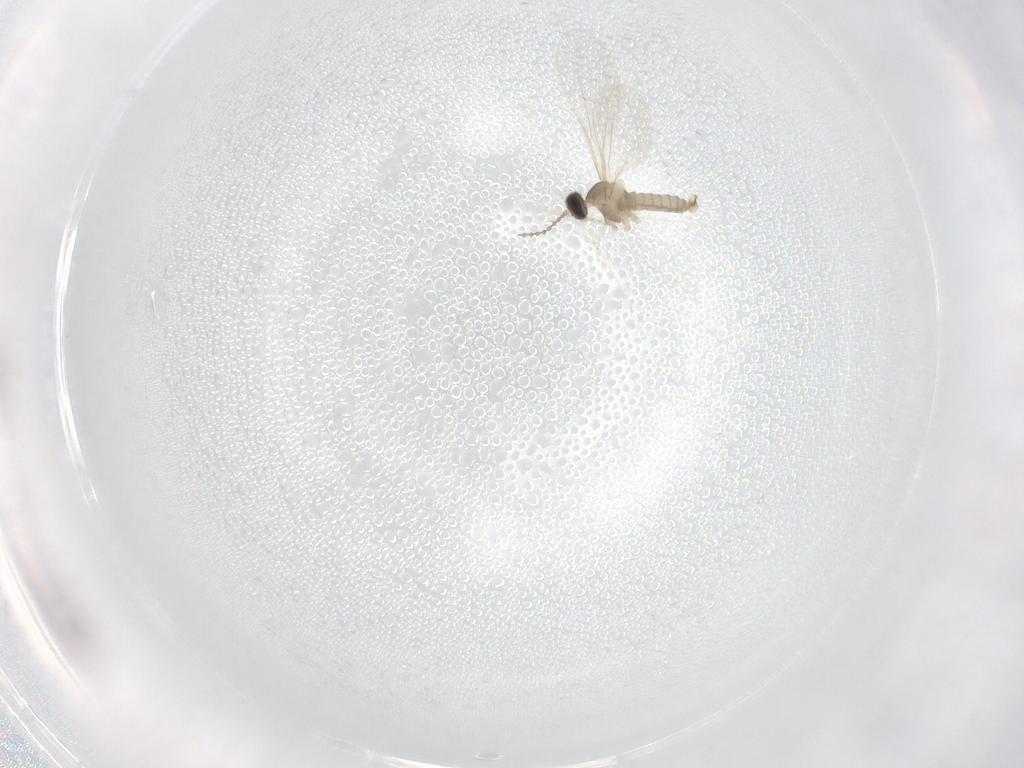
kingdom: Animalia
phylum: Arthropoda
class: Insecta
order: Diptera
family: Cecidomyiidae
